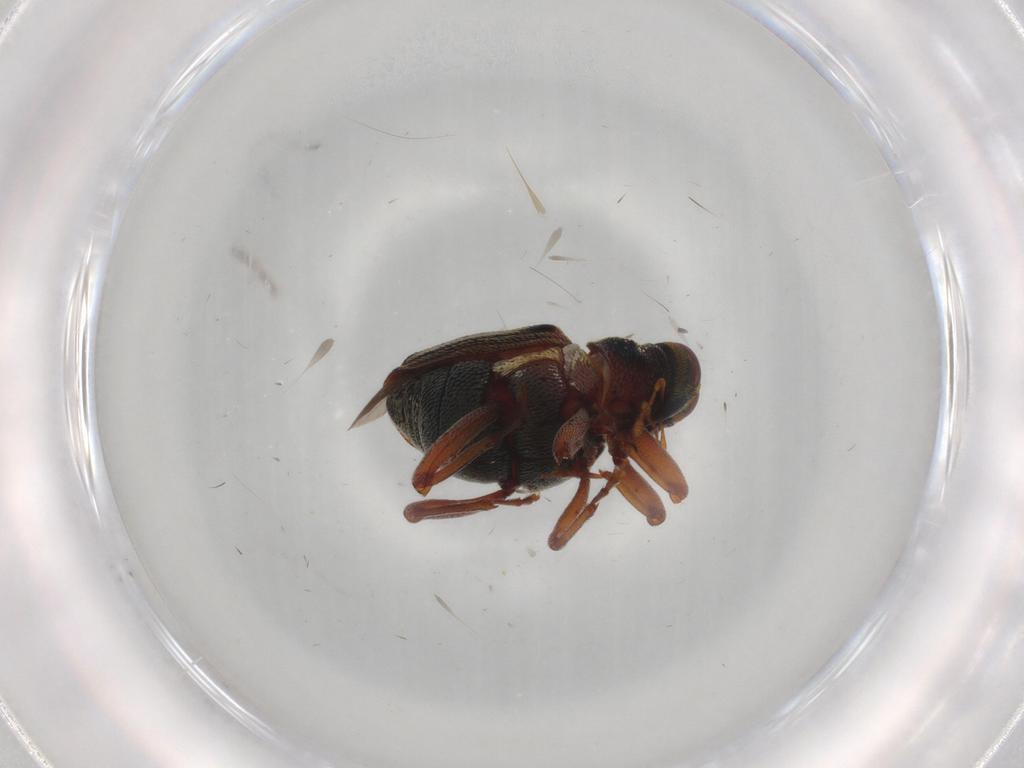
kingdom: Animalia
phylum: Arthropoda
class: Insecta
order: Coleoptera
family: Curculionidae
